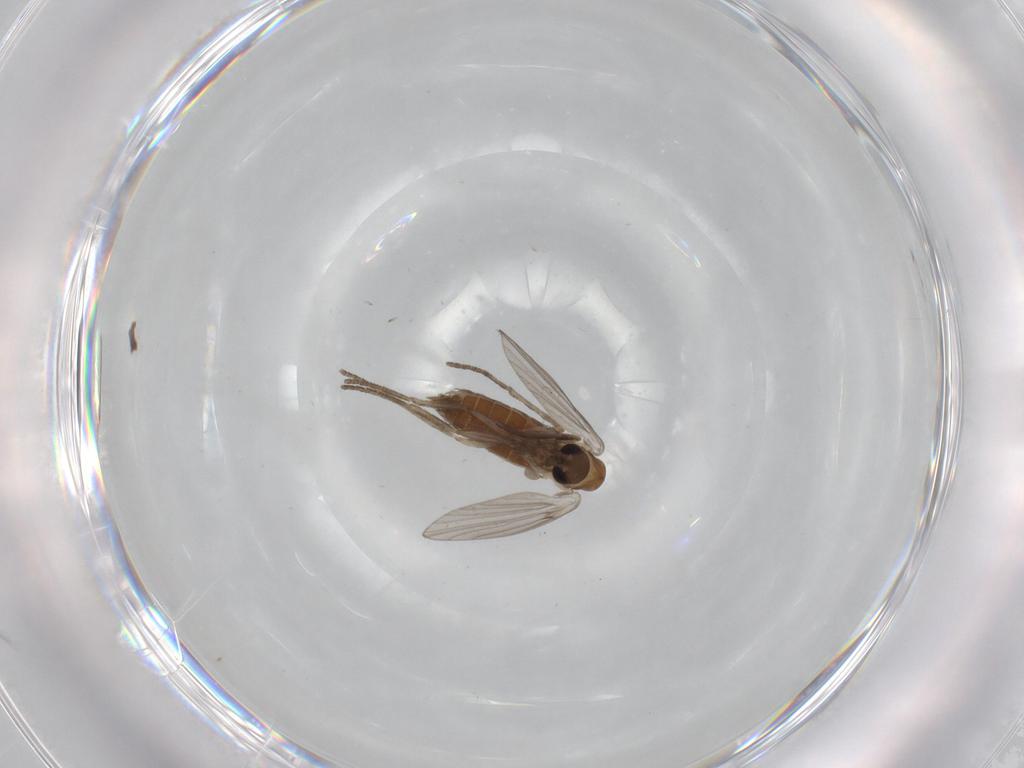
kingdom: Animalia
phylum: Arthropoda
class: Insecta
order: Diptera
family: Psychodidae
